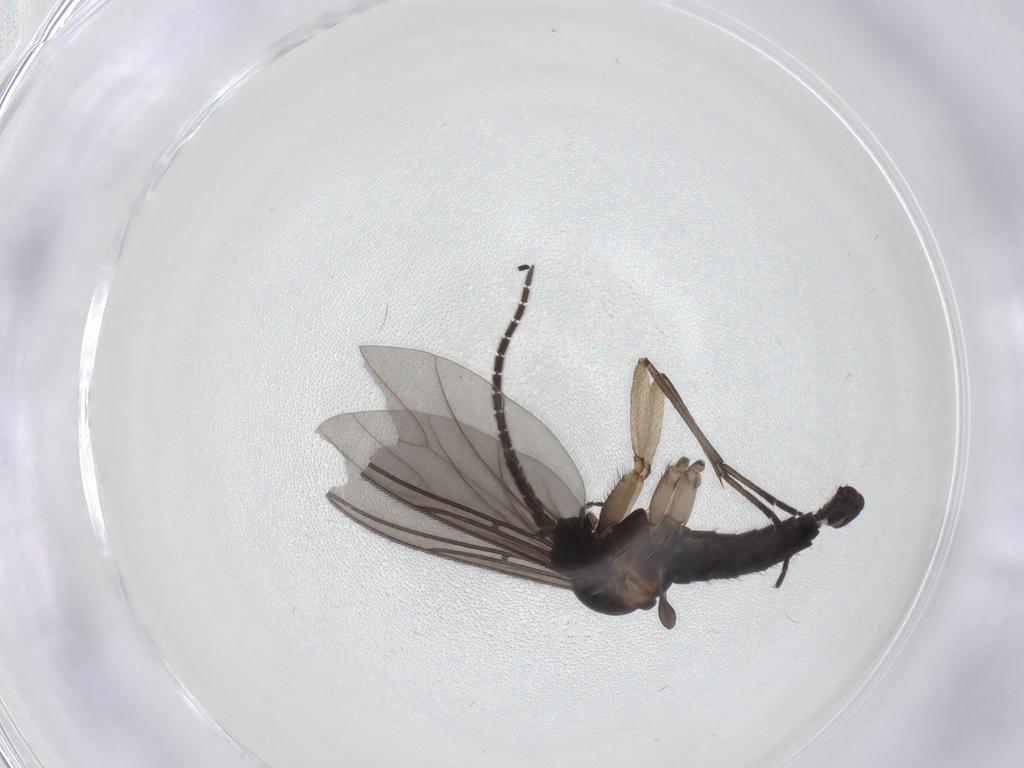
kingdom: Animalia
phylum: Arthropoda
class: Insecta
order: Diptera
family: Sciaridae
